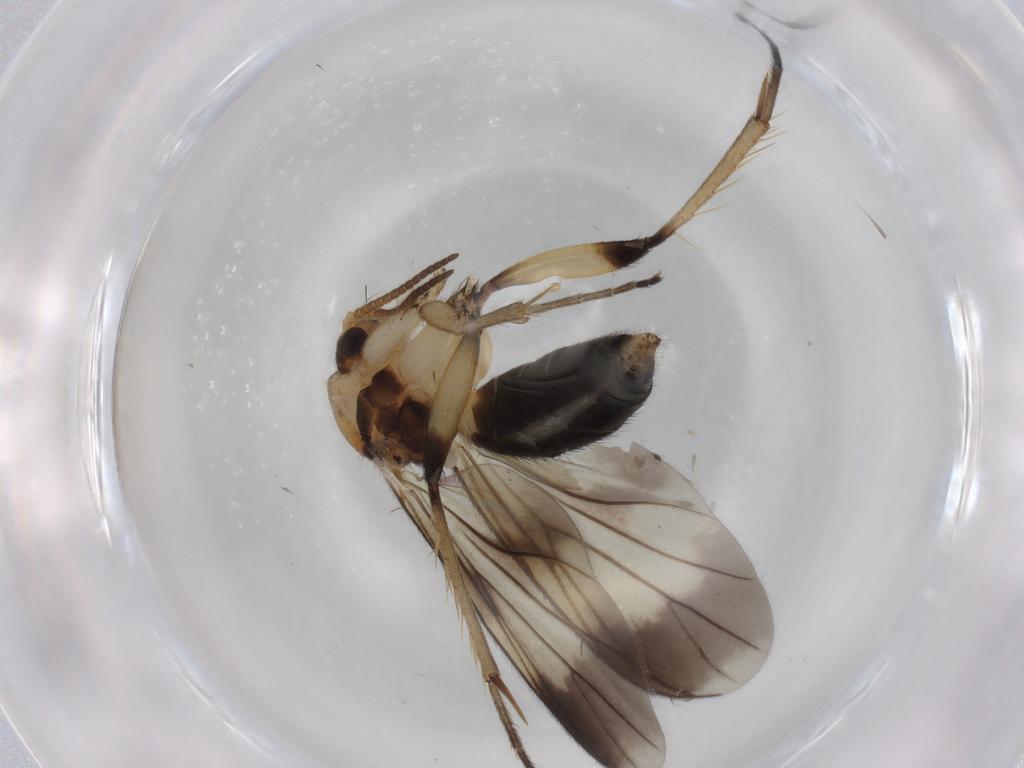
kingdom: Animalia
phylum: Arthropoda
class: Insecta
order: Diptera
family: Mycetophilidae
